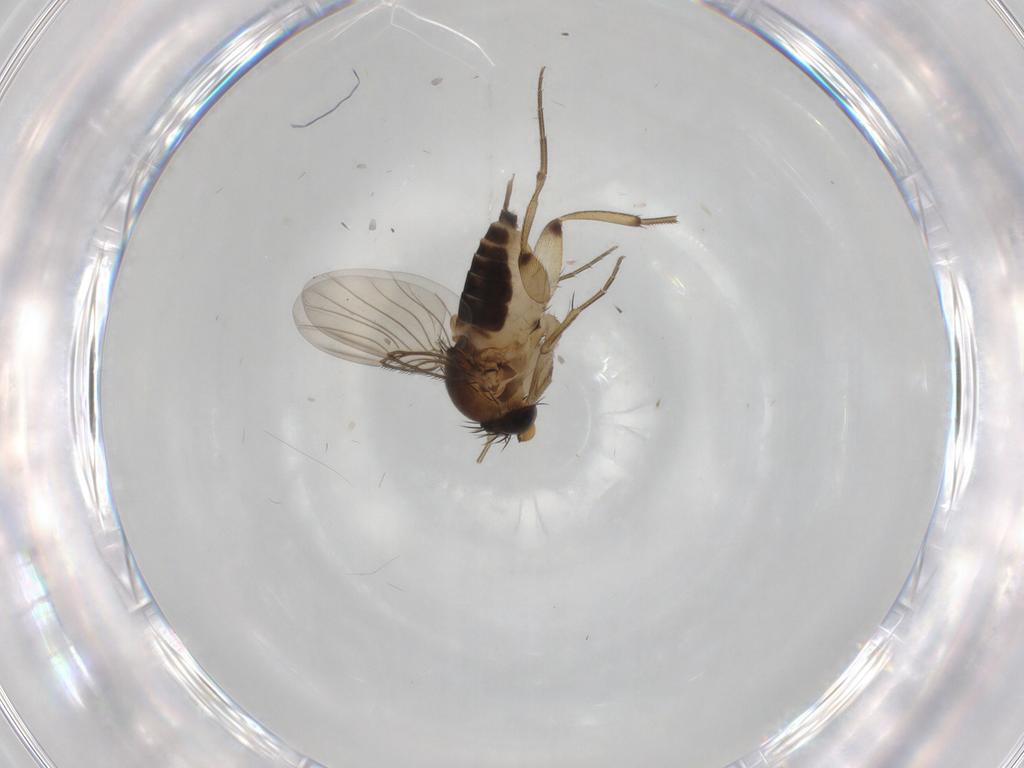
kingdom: Animalia
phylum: Arthropoda
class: Insecta
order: Diptera
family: Phoridae
